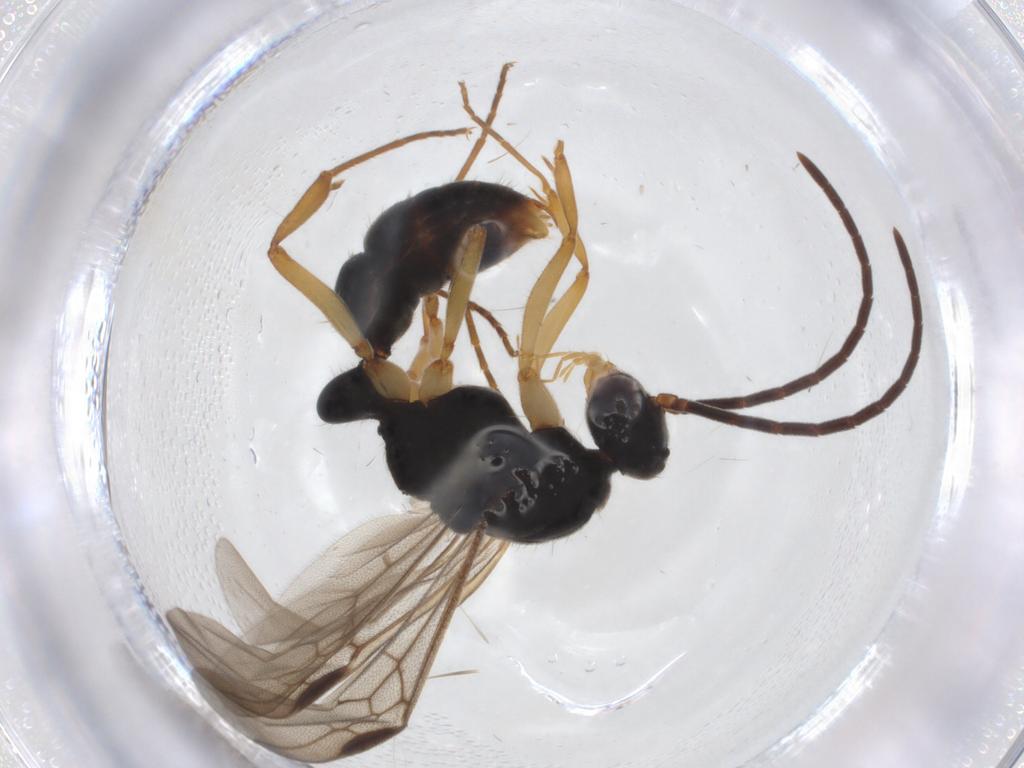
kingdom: Animalia
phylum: Arthropoda
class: Insecta
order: Hymenoptera
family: Formicidae
